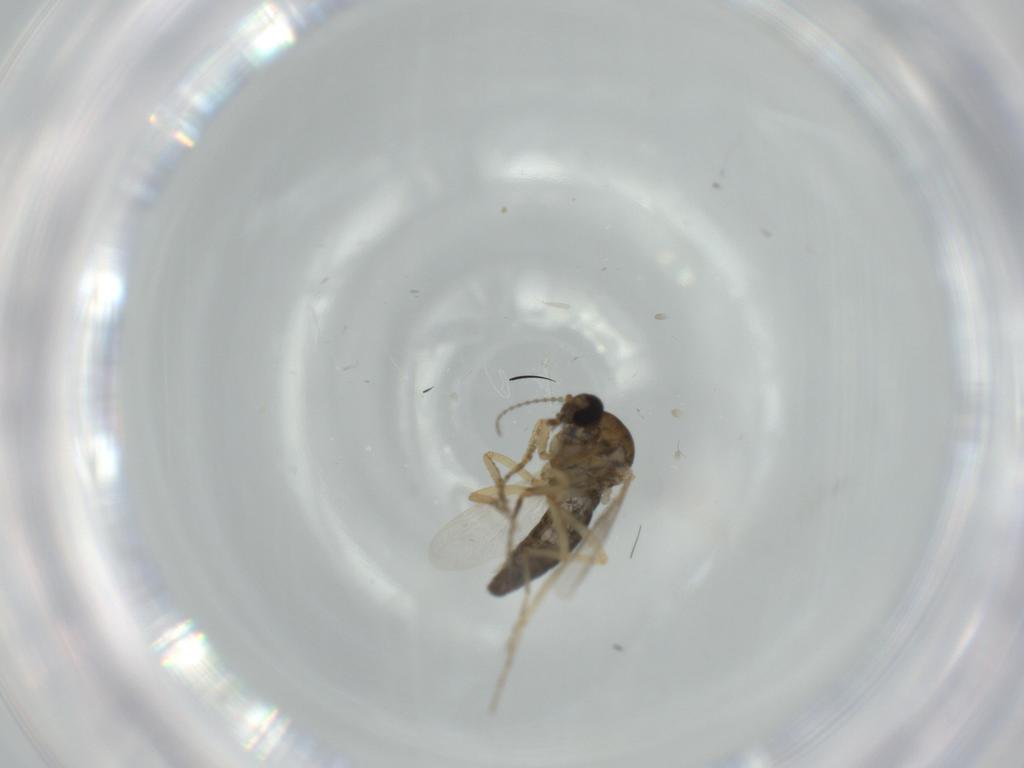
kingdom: Animalia
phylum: Arthropoda
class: Insecta
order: Diptera
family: Ceratopogonidae
